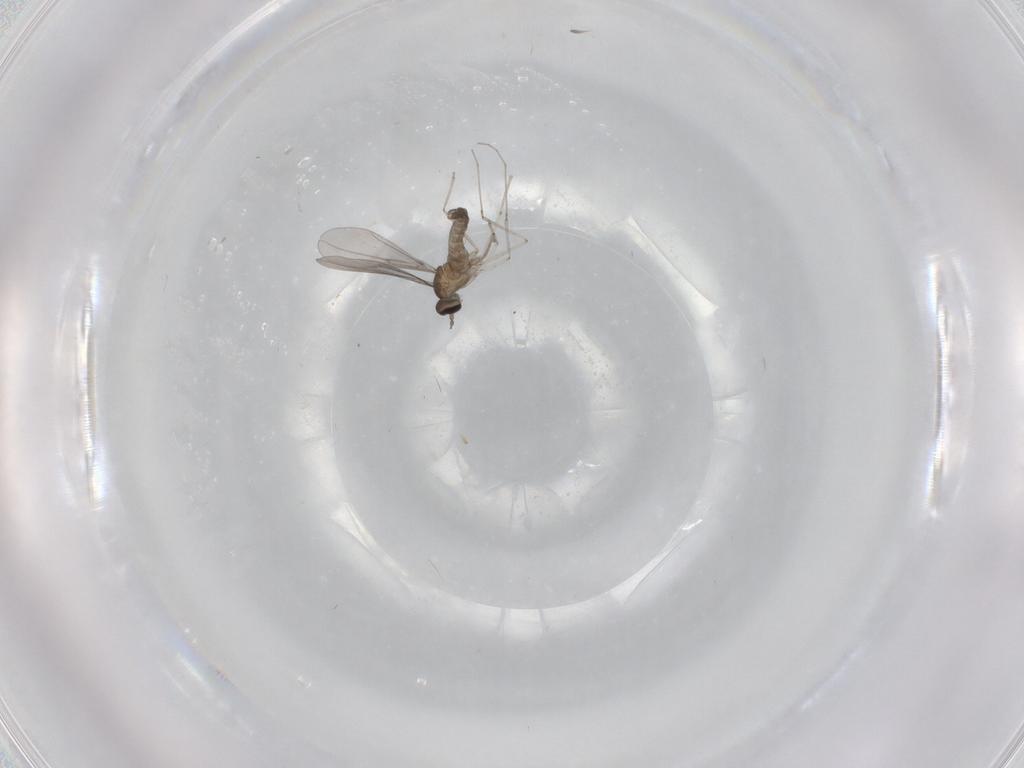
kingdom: Animalia
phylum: Arthropoda
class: Insecta
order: Diptera
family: Cecidomyiidae
